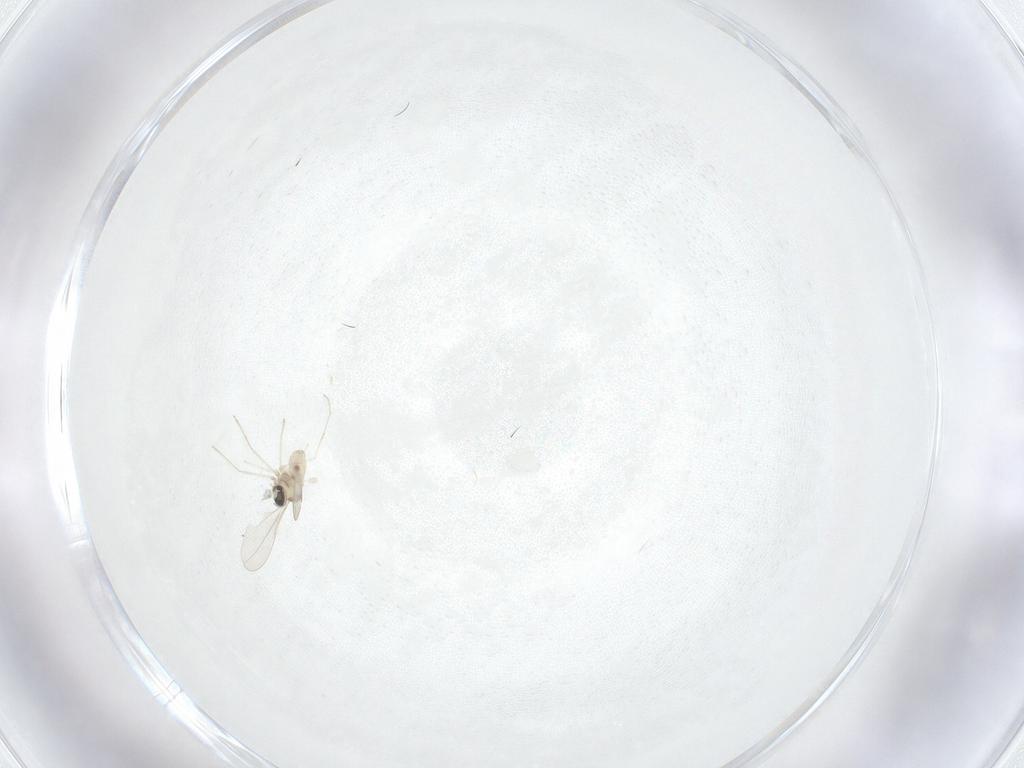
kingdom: Animalia
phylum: Arthropoda
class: Insecta
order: Diptera
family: Cecidomyiidae
